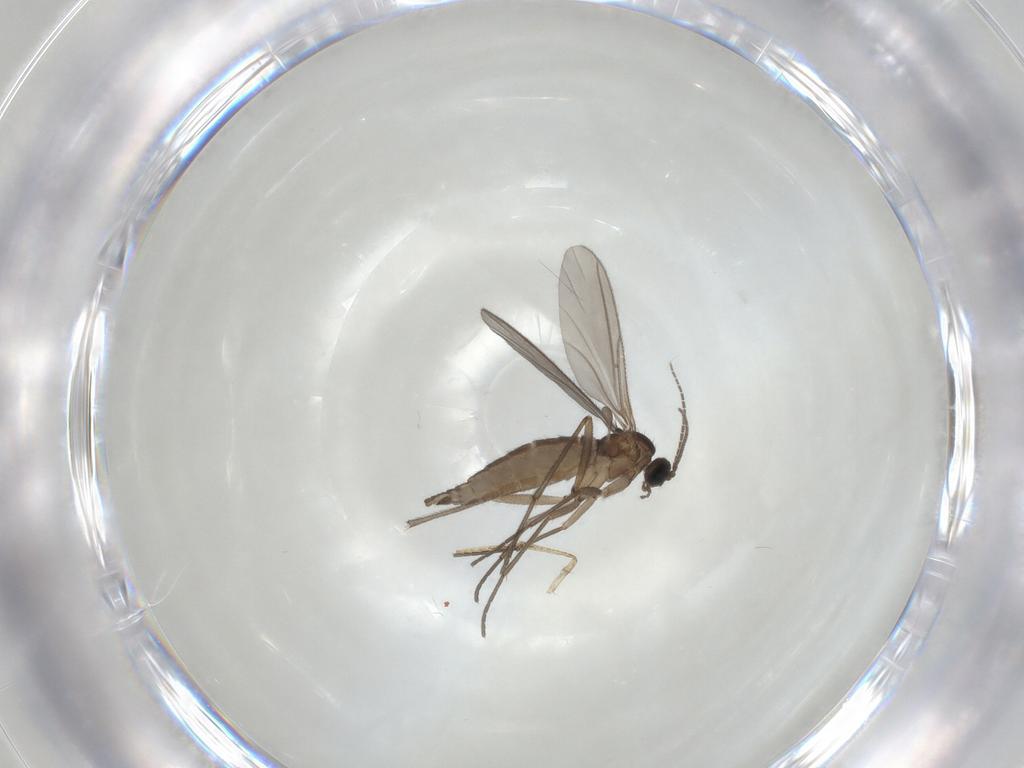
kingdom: Animalia
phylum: Arthropoda
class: Insecta
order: Diptera
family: Sciaridae
